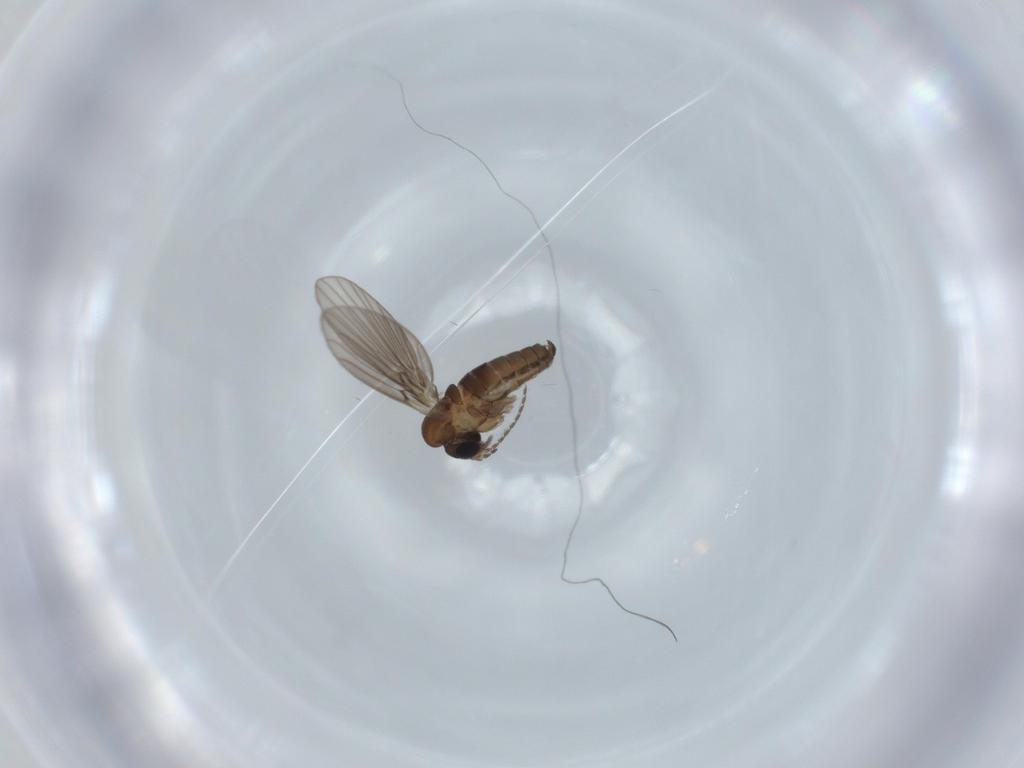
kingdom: Animalia
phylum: Arthropoda
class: Insecta
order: Diptera
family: Psychodidae
